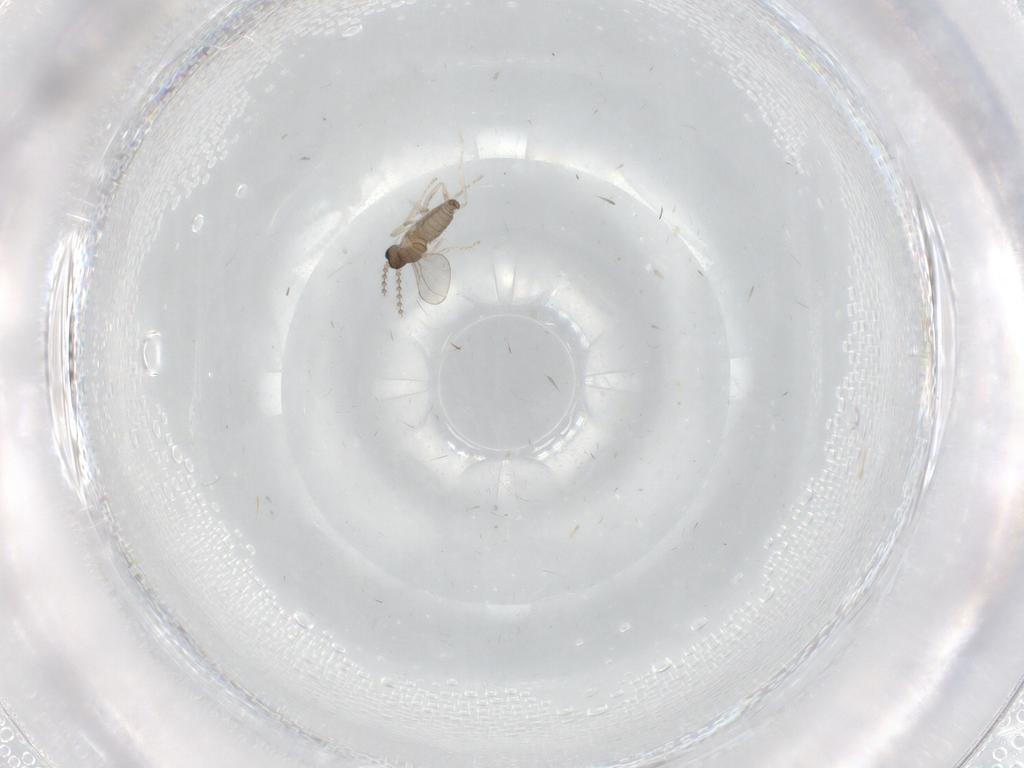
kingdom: Animalia
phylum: Arthropoda
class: Insecta
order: Diptera
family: Cecidomyiidae
